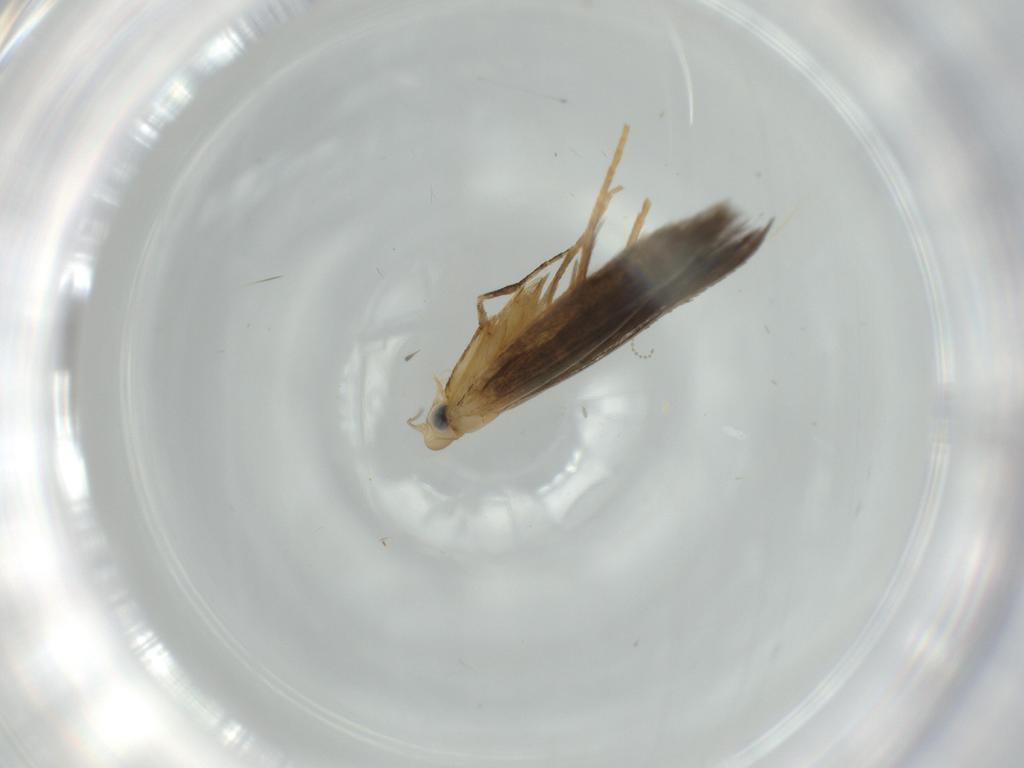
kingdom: Animalia
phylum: Arthropoda
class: Insecta
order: Lepidoptera
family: Tischeriidae
